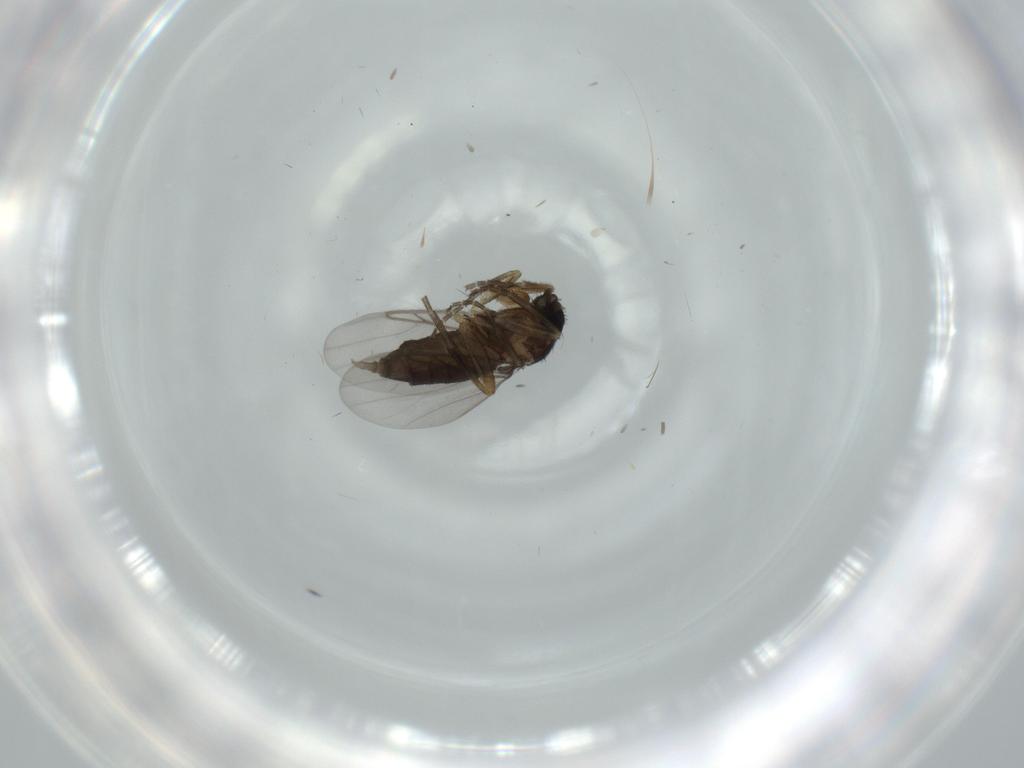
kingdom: Animalia
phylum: Arthropoda
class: Insecta
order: Diptera
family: Phoridae
